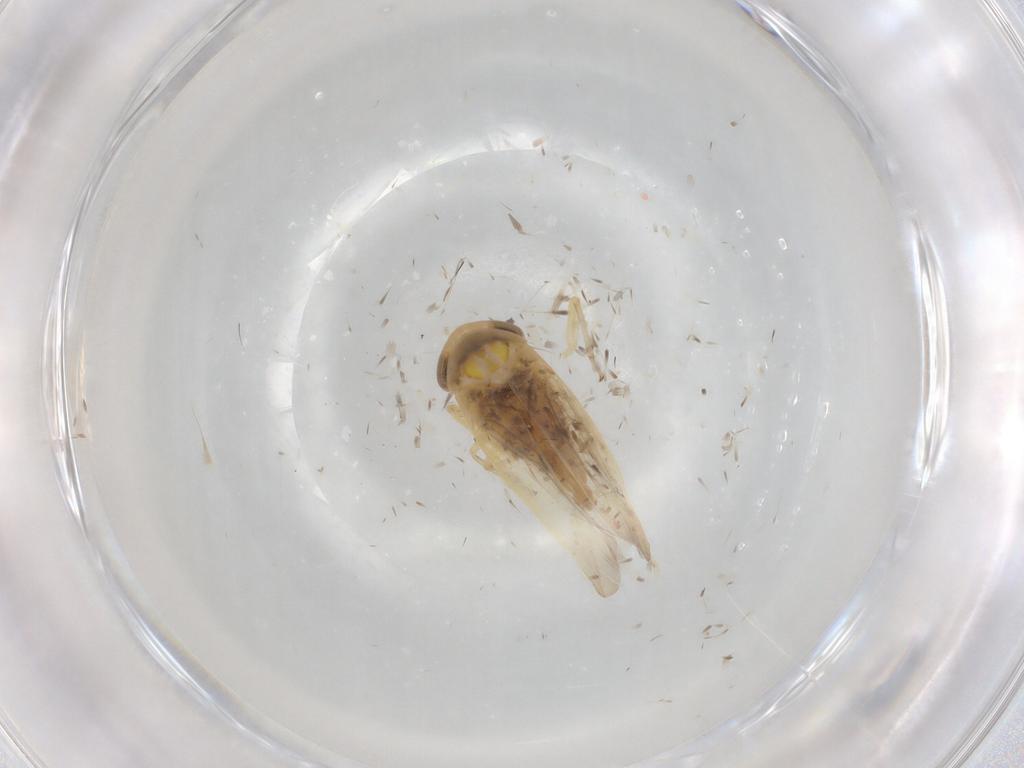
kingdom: Animalia
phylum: Arthropoda
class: Insecta
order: Hemiptera
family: Cicadellidae
